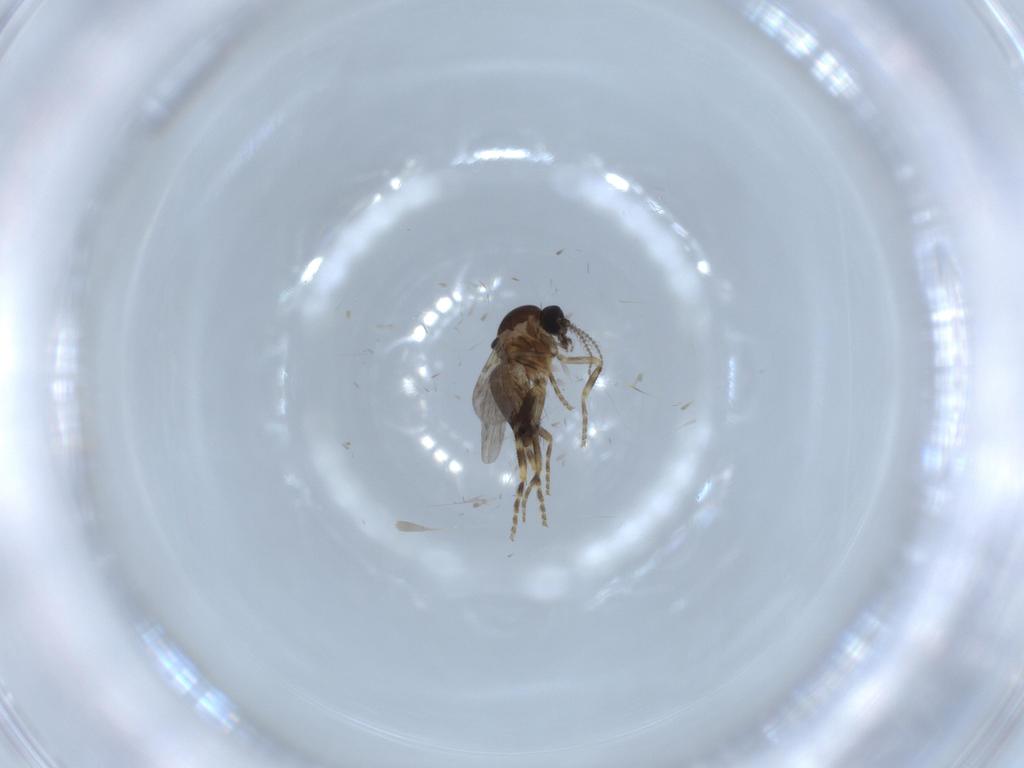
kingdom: Animalia
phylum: Arthropoda
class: Insecta
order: Diptera
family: Ceratopogonidae
